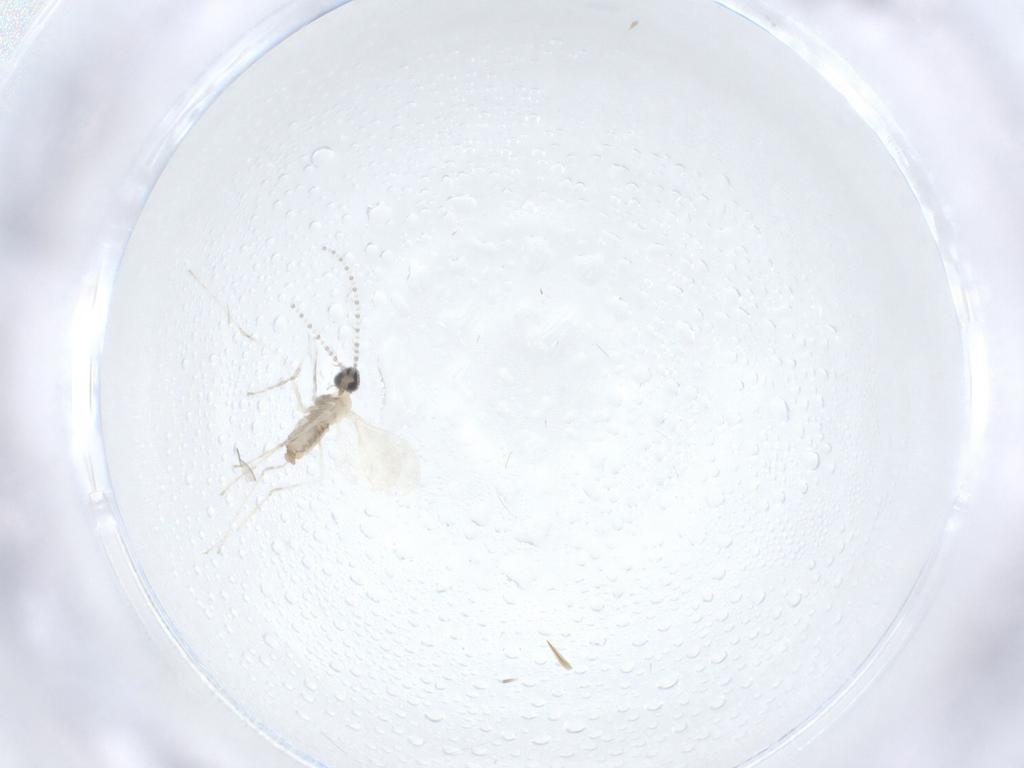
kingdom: Animalia
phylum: Arthropoda
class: Insecta
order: Diptera
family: Cecidomyiidae
